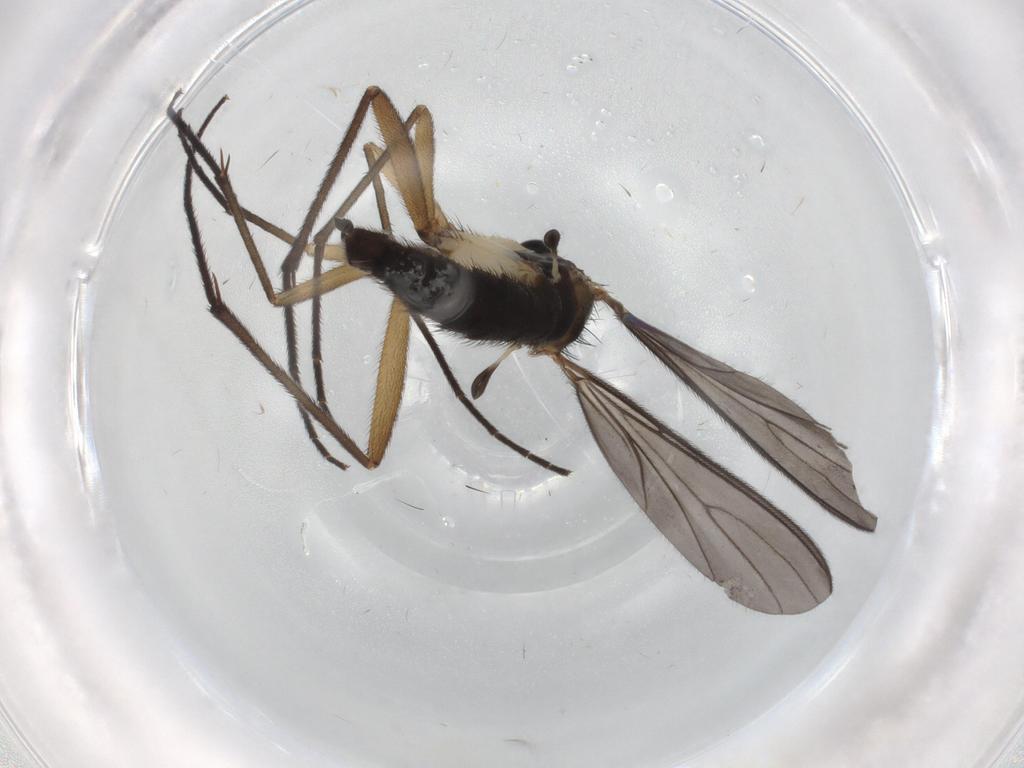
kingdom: Animalia
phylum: Arthropoda
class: Insecta
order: Diptera
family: Sciaridae
